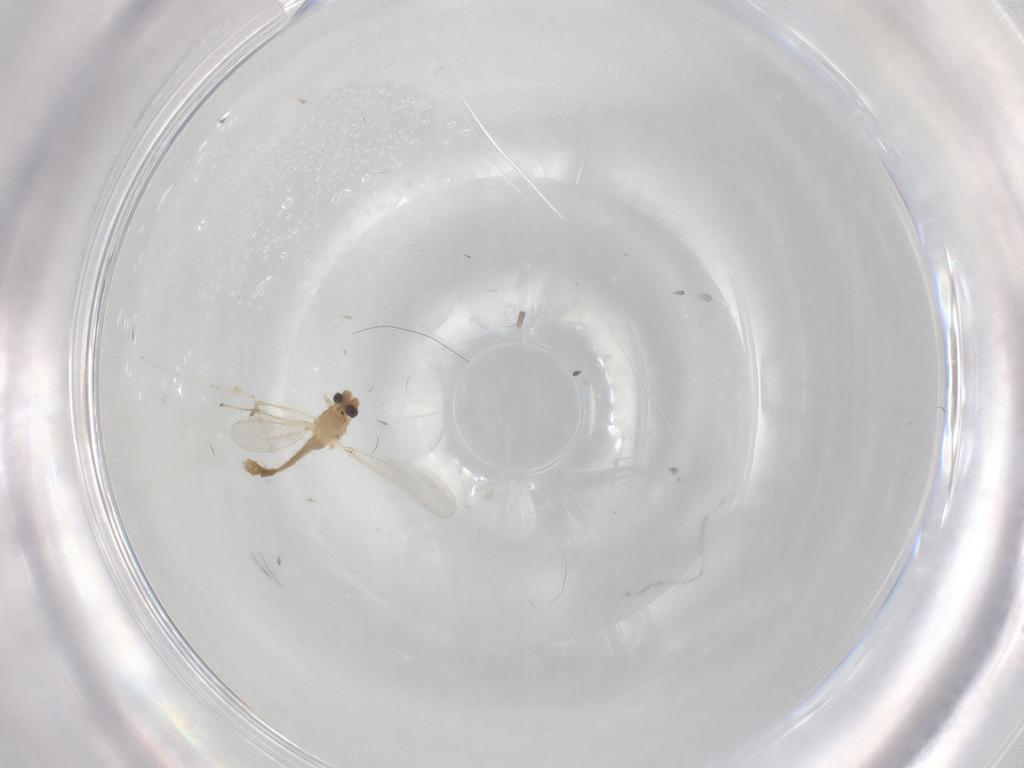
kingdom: Animalia
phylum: Arthropoda
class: Insecta
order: Diptera
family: Chironomidae
